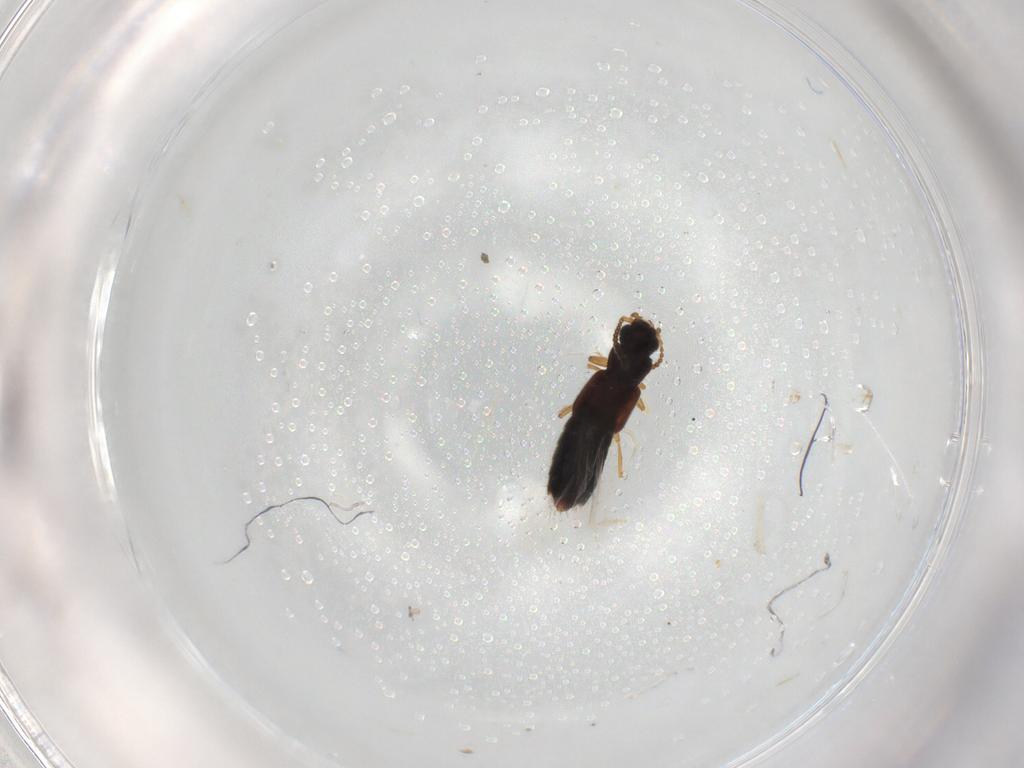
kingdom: Animalia
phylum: Arthropoda
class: Insecta
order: Coleoptera
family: Staphylinidae
